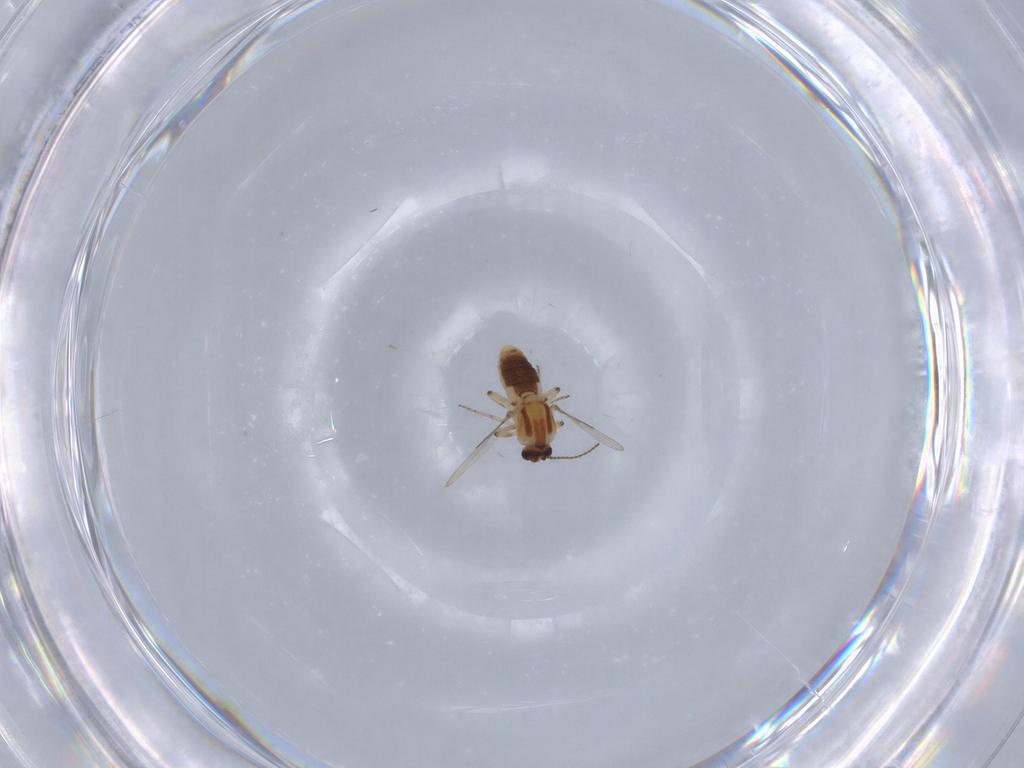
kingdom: Animalia
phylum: Arthropoda
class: Insecta
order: Diptera
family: Ceratopogonidae
